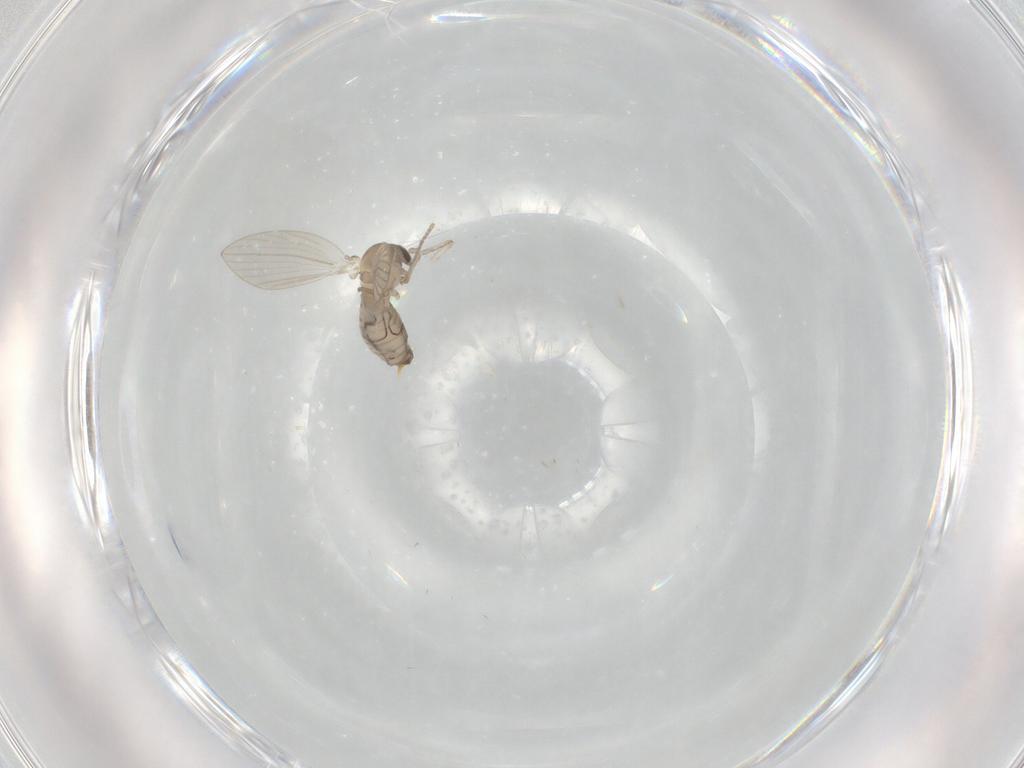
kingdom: Animalia
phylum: Arthropoda
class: Insecta
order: Diptera
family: Psychodidae
